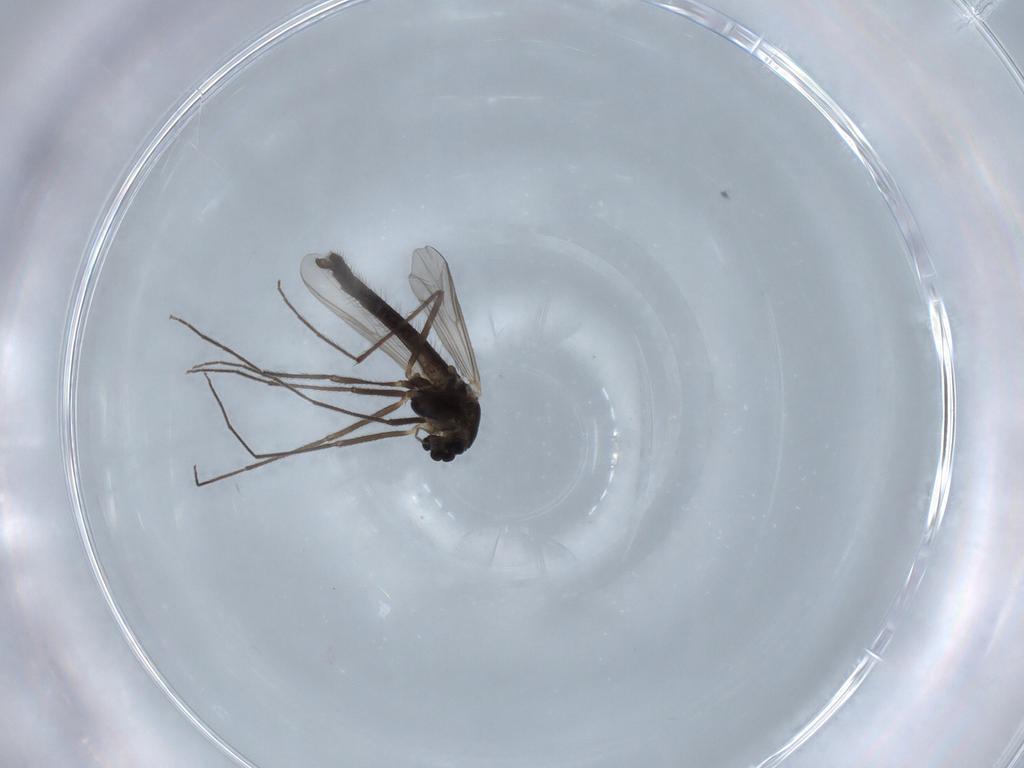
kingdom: Animalia
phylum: Arthropoda
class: Insecta
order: Diptera
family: Chironomidae
